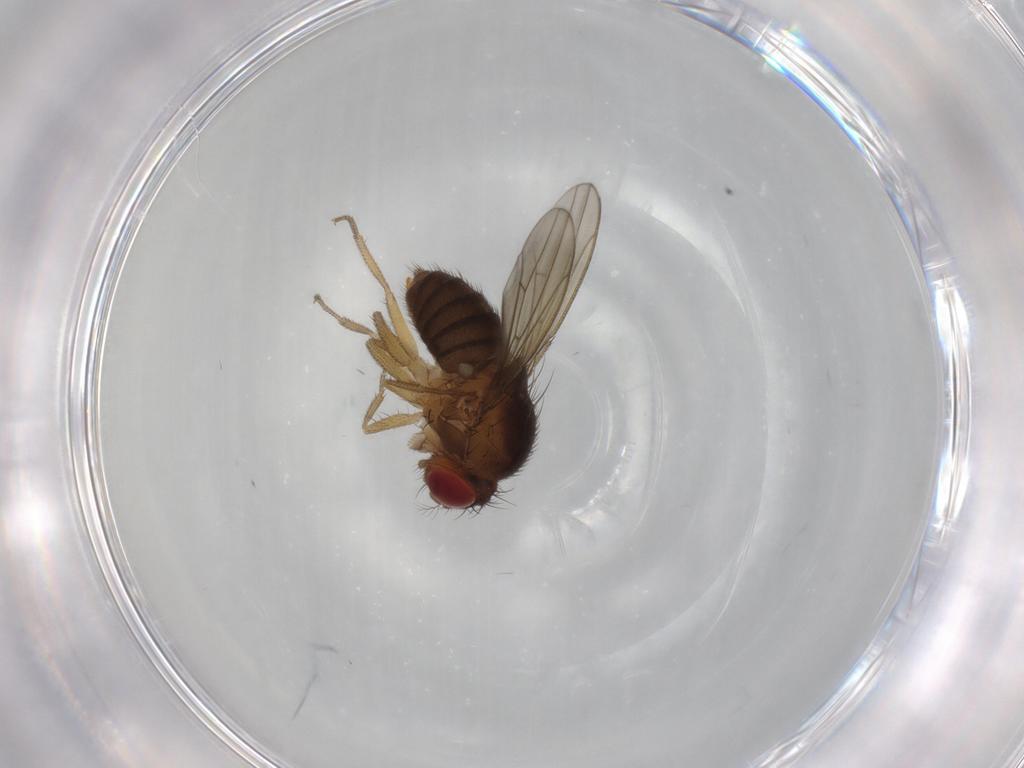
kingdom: Animalia
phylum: Arthropoda
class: Insecta
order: Diptera
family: Drosophilidae
